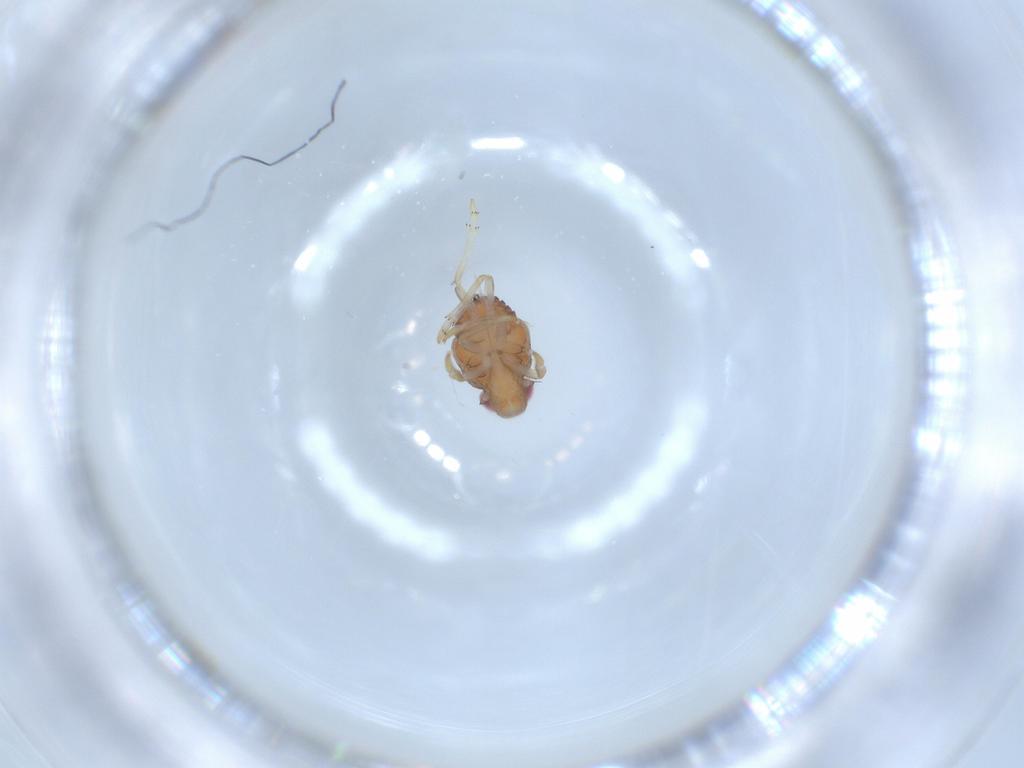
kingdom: Animalia
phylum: Arthropoda
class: Insecta
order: Hemiptera
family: Issidae
